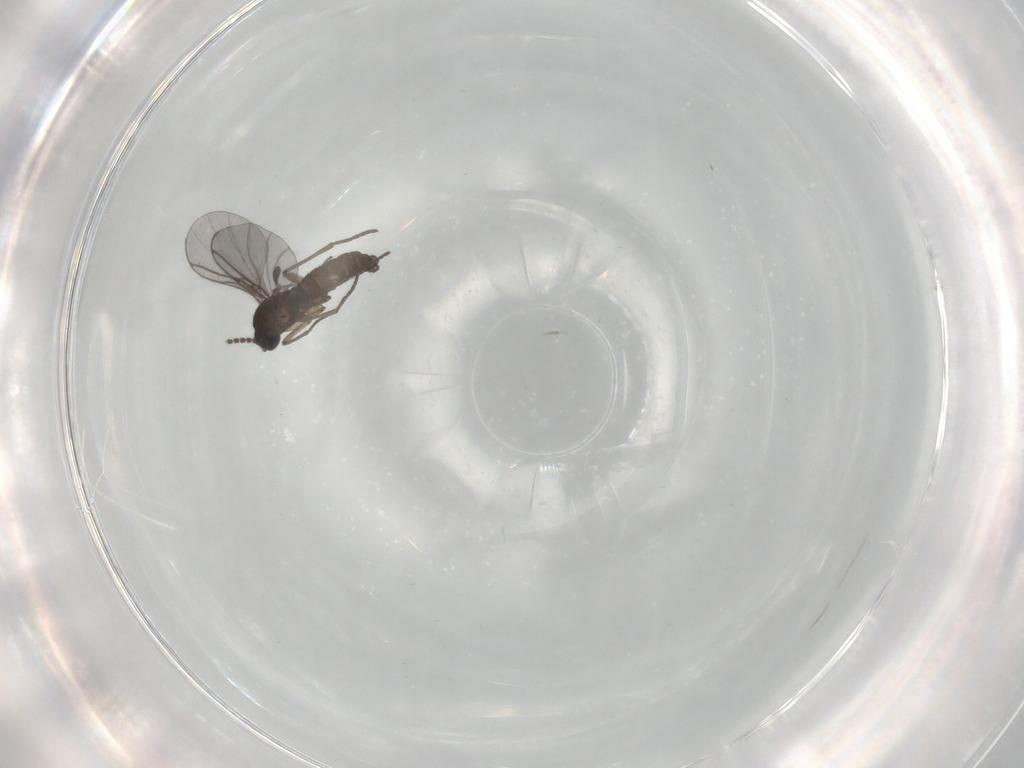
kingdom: Animalia
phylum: Arthropoda
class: Insecta
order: Diptera
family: Sciaridae
